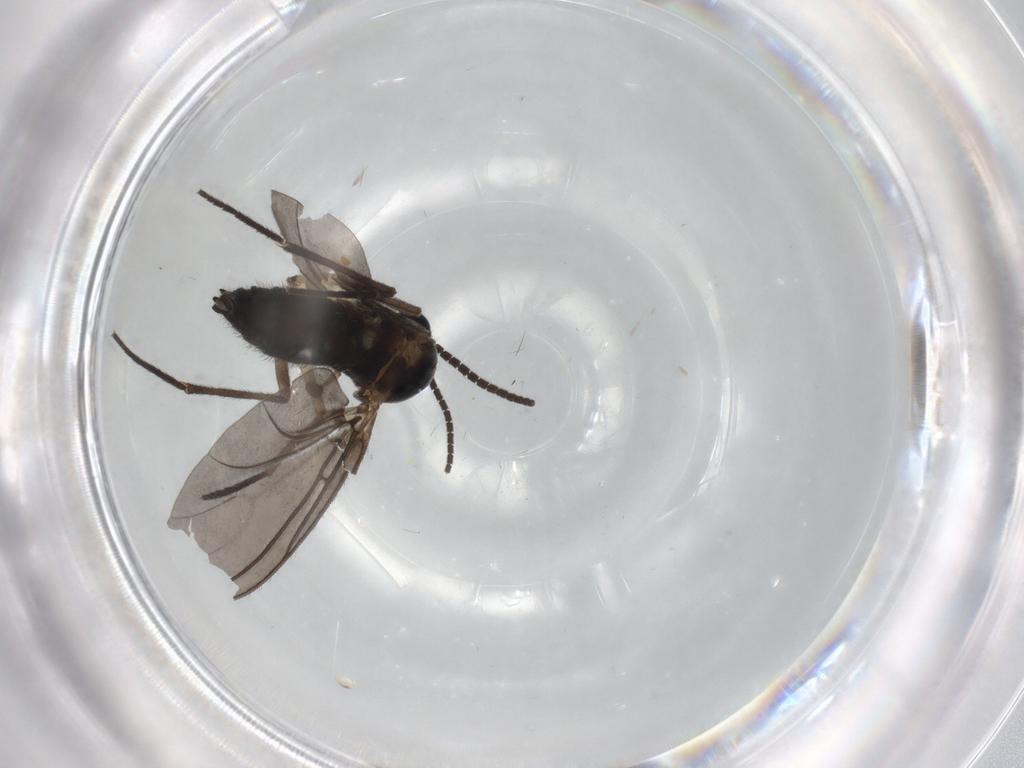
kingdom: Animalia
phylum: Arthropoda
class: Insecta
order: Diptera
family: Sciaridae
